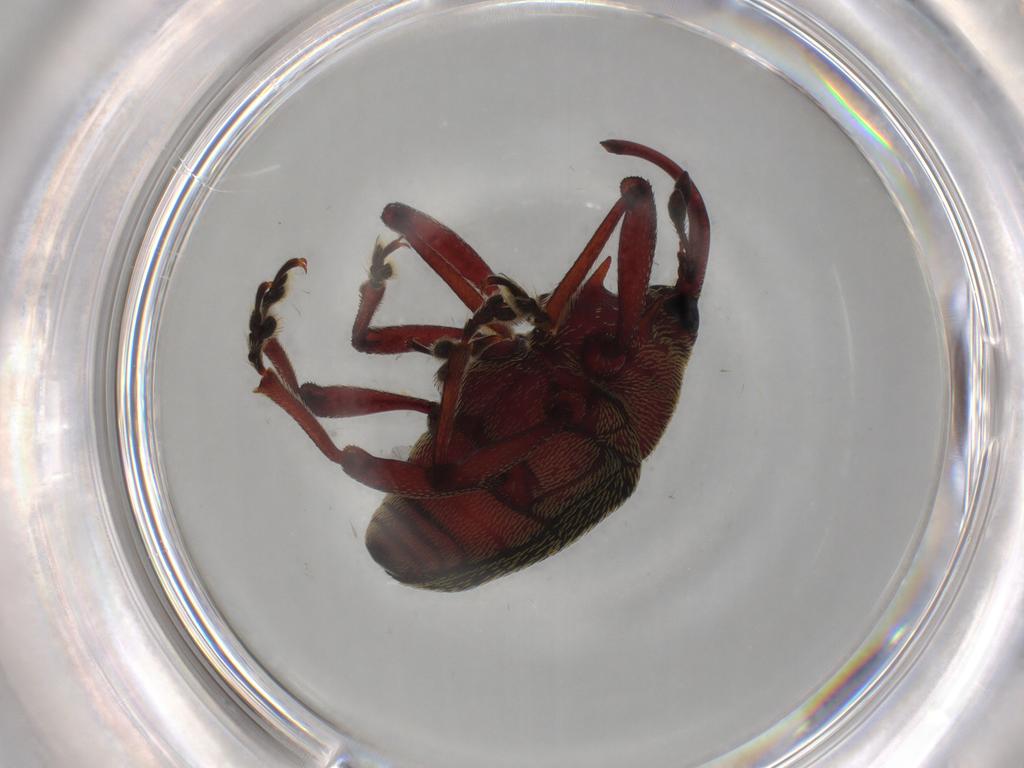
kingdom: Animalia
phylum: Arthropoda
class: Insecta
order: Coleoptera
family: Curculionidae
